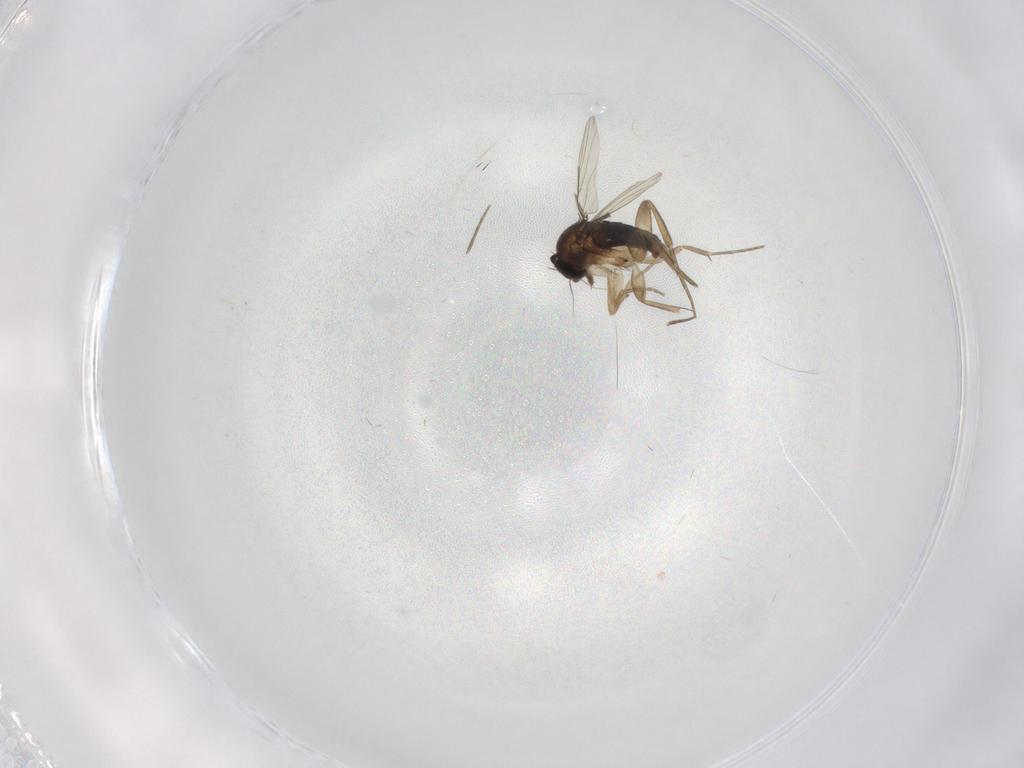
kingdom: Animalia
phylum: Arthropoda
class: Insecta
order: Diptera
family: Phoridae
